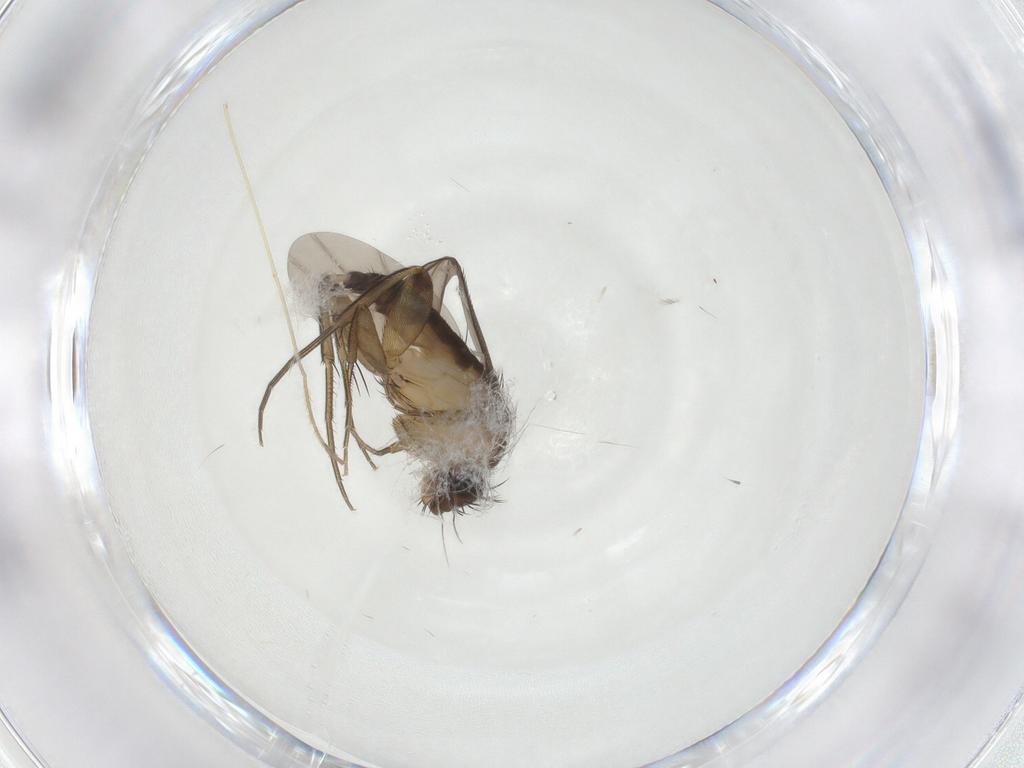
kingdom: Animalia
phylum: Arthropoda
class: Insecta
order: Diptera
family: Phoridae
